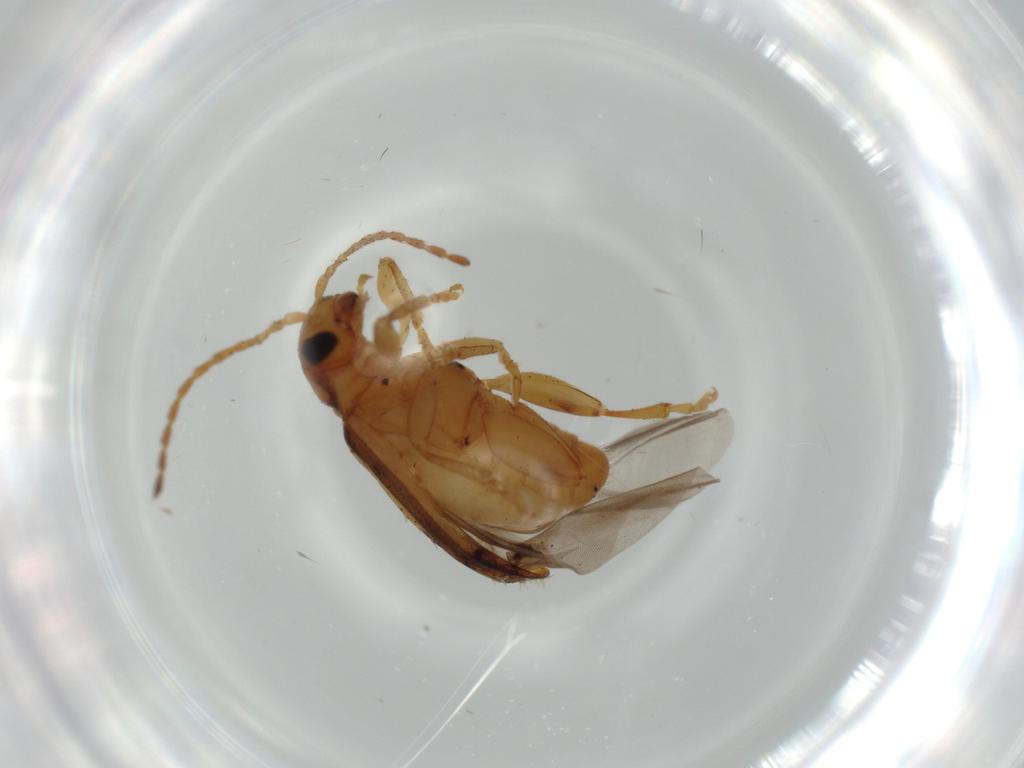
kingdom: Animalia
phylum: Arthropoda
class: Insecta
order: Coleoptera
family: Chrysomelidae
